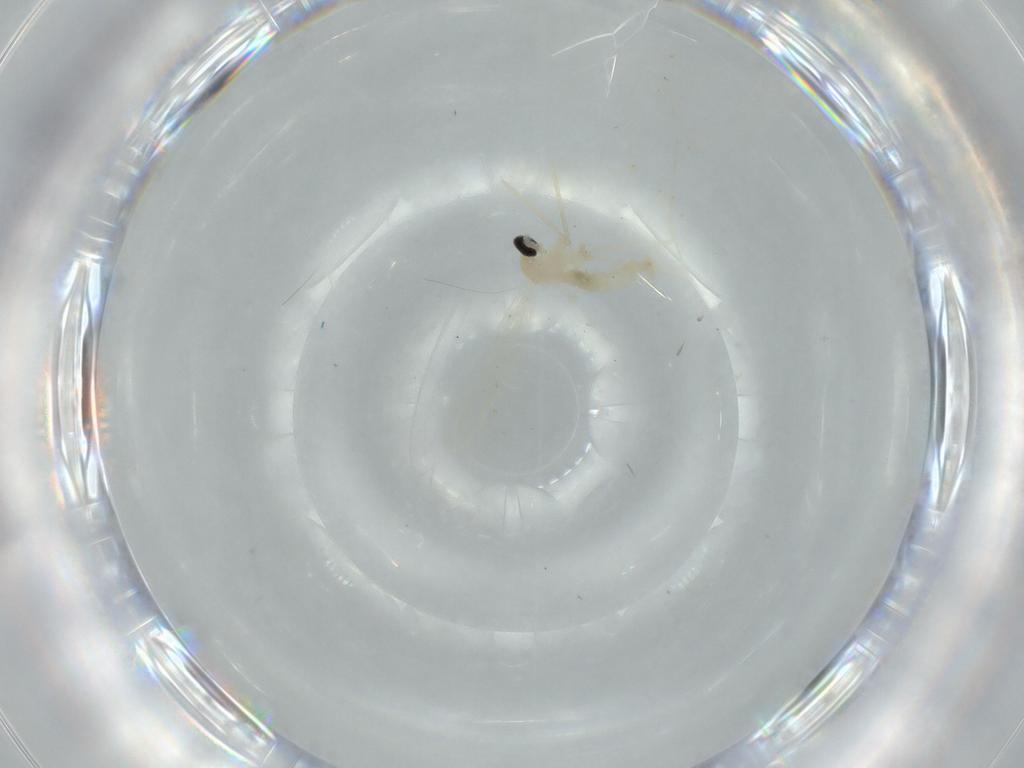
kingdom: Animalia
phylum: Arthropoda
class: Insecta
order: Diptera
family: Cecidomyiidae
